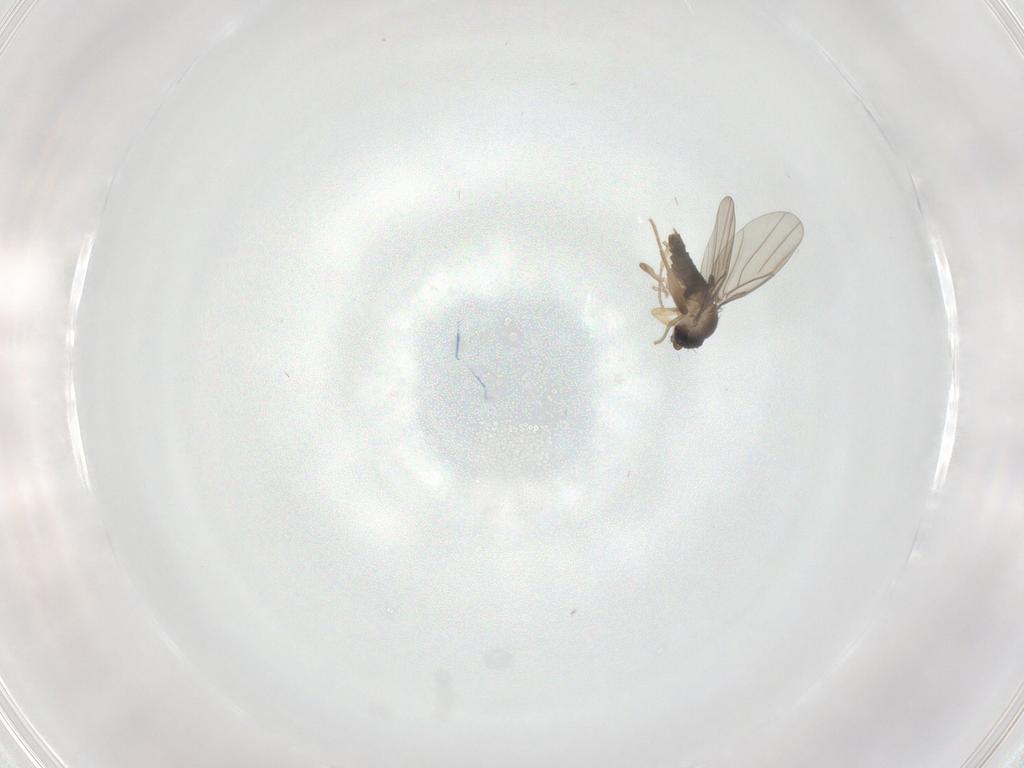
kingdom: Animalia
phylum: Arthropoda
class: Insecta
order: Diptera
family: Phoridae
